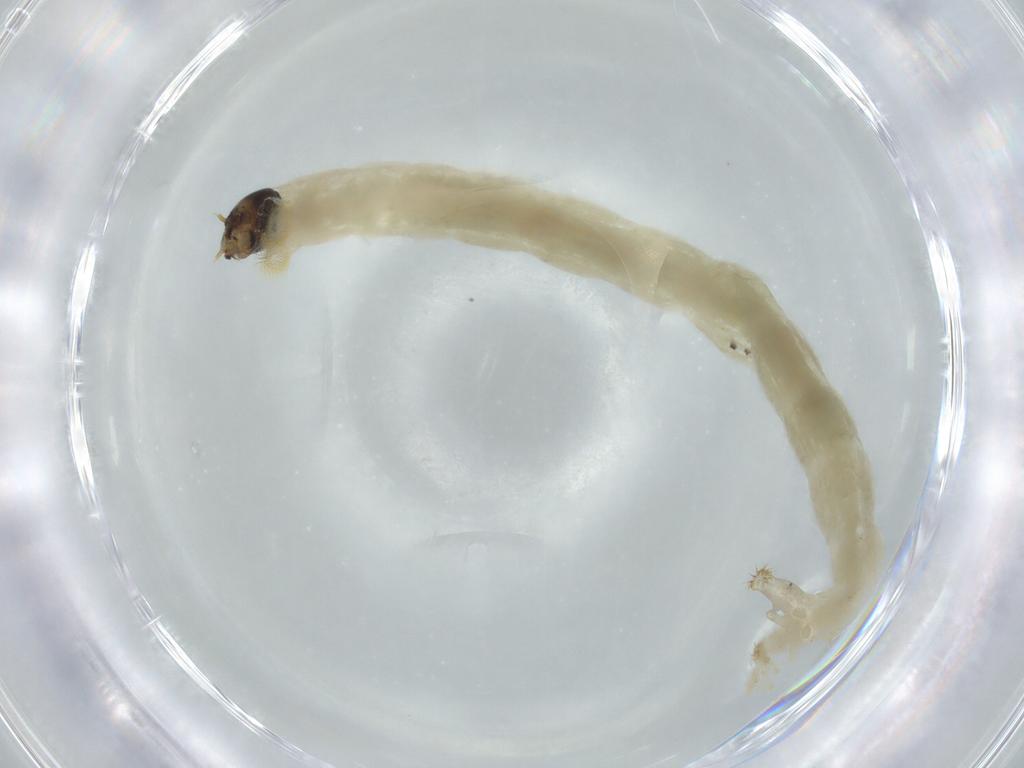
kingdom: Animalia
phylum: Arthropoda
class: Insecta
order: Diptera
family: Chironomidae
